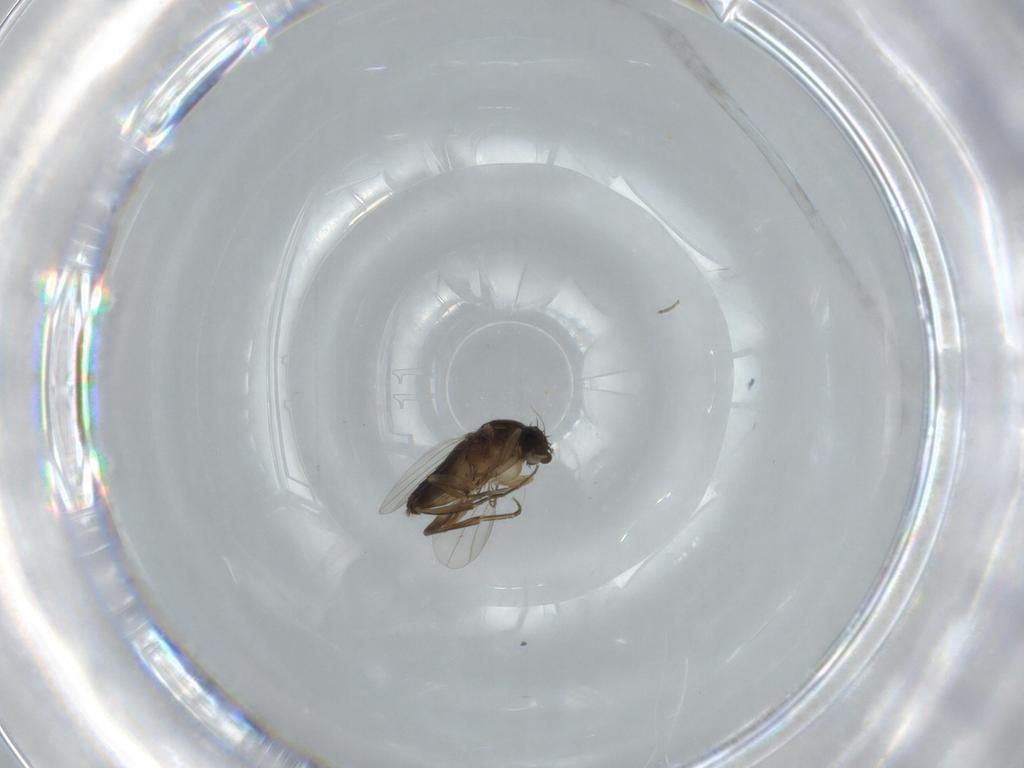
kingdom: Animalia
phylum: Arthropoda
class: Insecta
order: Diptera
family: Phoridae
